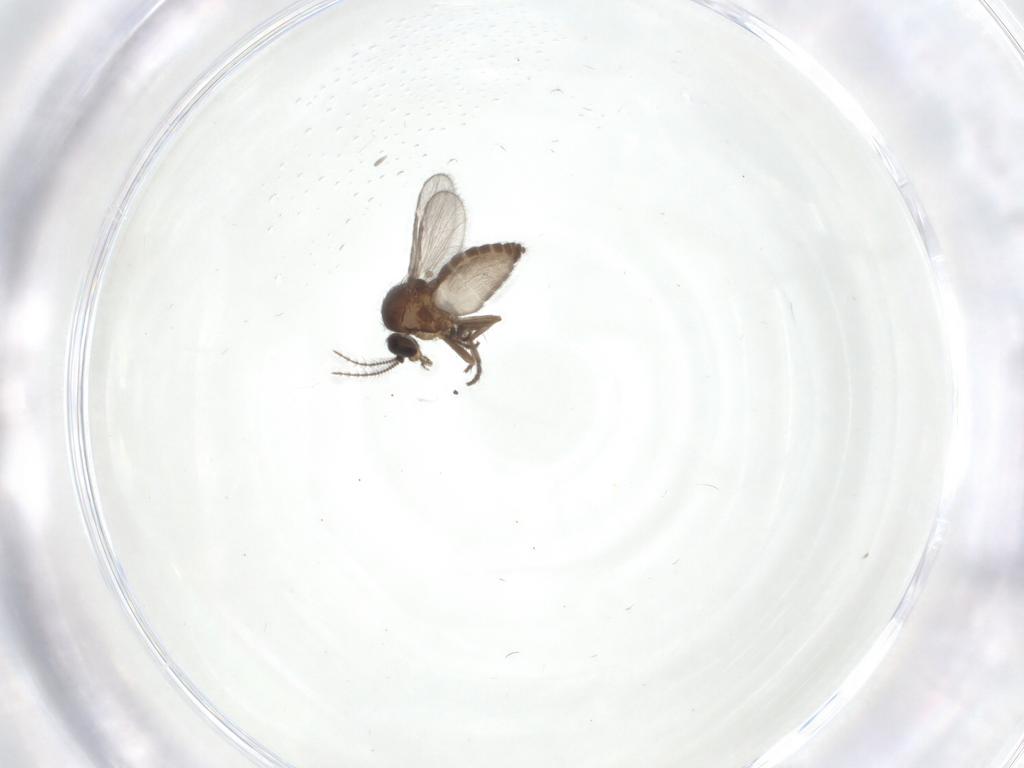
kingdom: Animalia
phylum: Arthropoda
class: Insecta
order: Diptera
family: Ceratopogonidae
